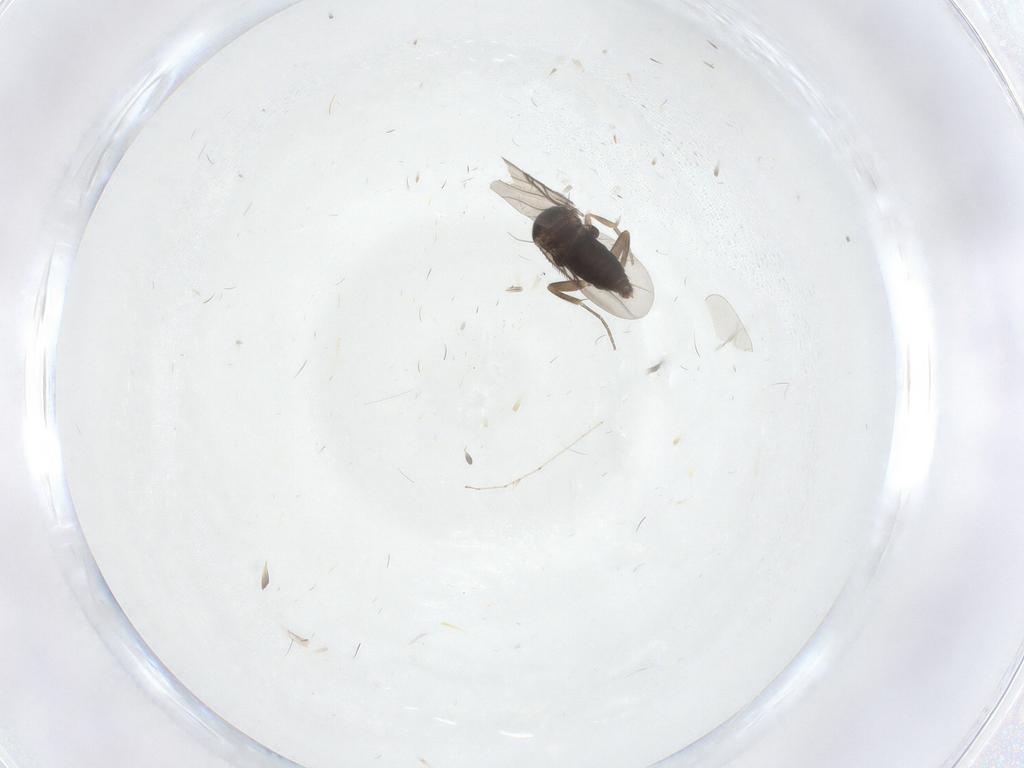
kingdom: Animalia
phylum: Arthropoda
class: Insecta
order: Diptera
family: Phoridae
